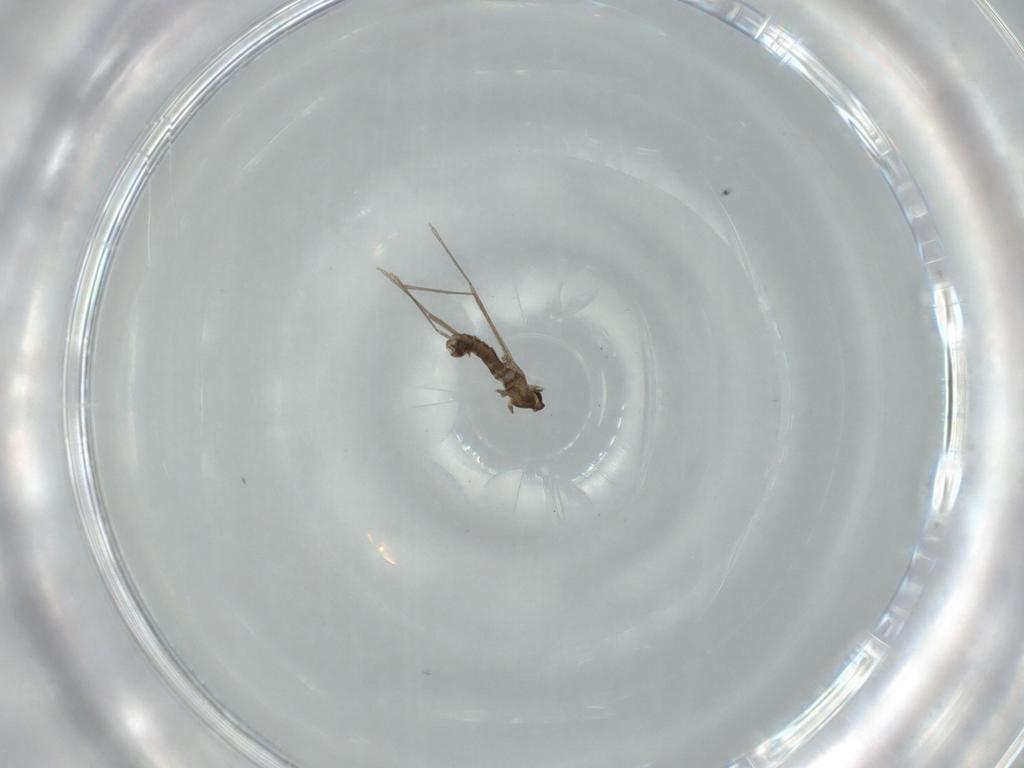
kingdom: Animalia
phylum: Arthropoda
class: Insecta
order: Diptera
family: Cecidomyiidae
